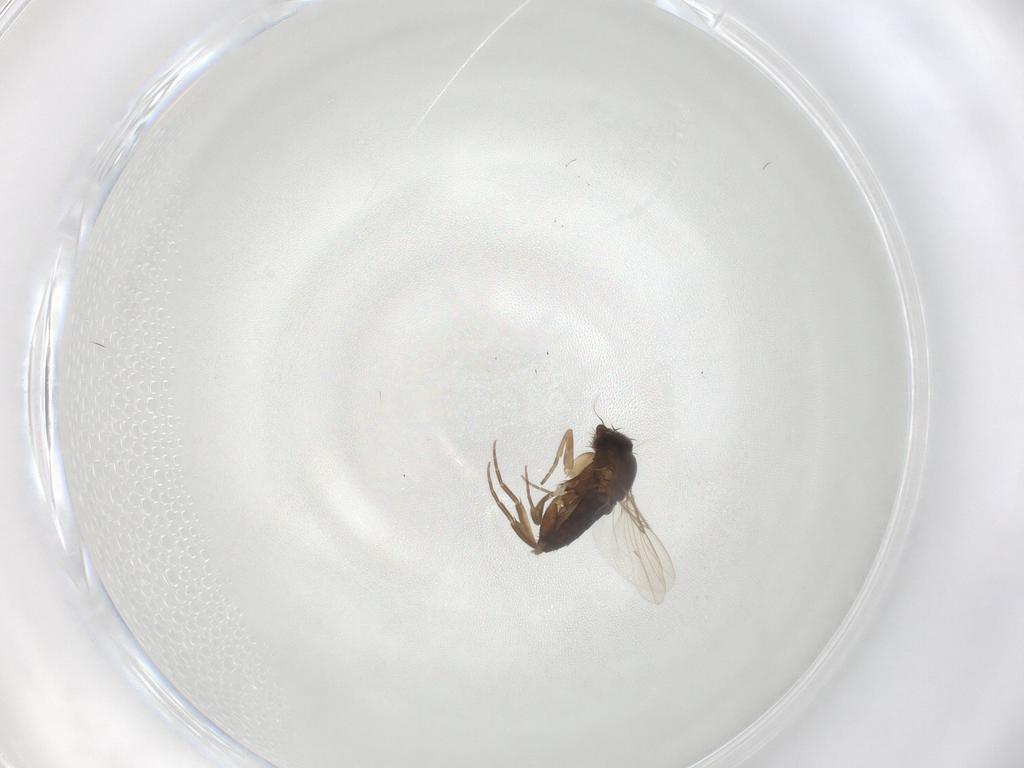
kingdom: Animalia
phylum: Arthropoda
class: Insecta
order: Diptera
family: Phoridae
